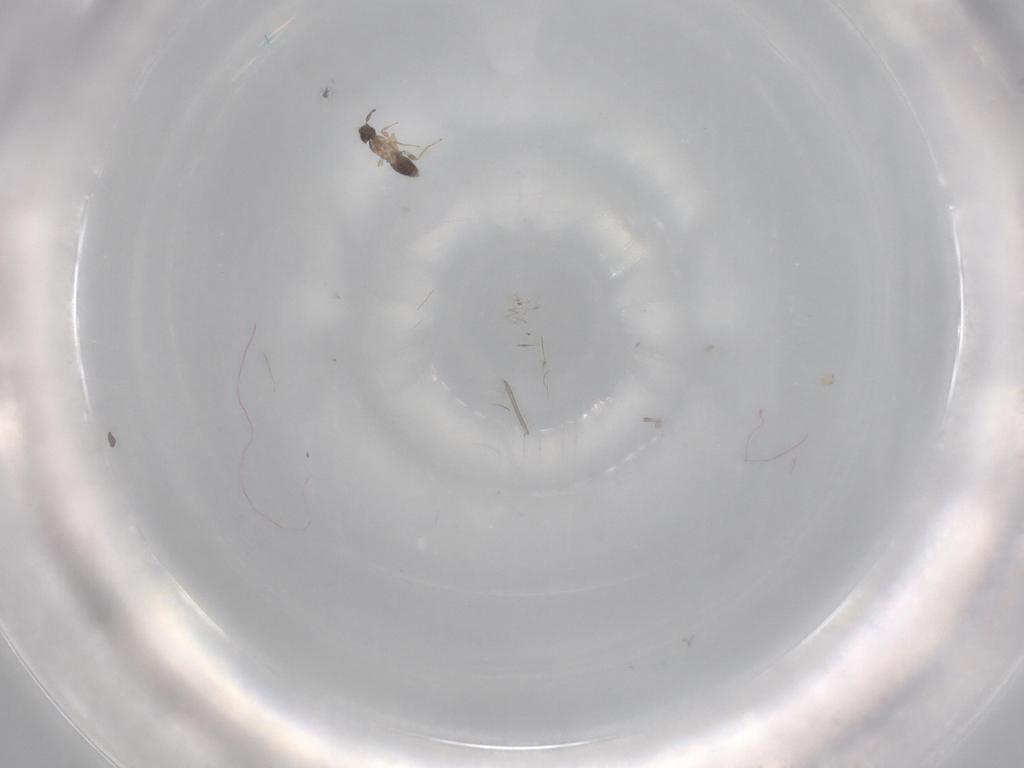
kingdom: Animalia
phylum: Arthropoda
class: Insecta
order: Hymenoptera
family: Mymaridae
